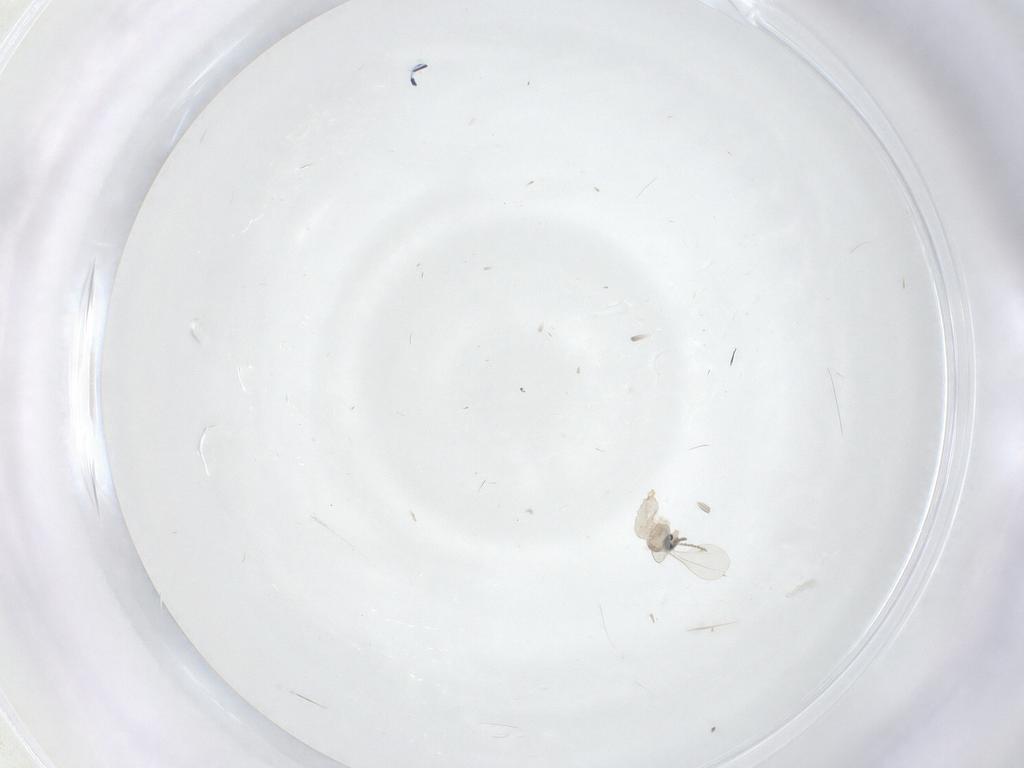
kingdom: Animalia
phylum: Arthropoda
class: Insecta
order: Diptera
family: Cecidomyiidae
